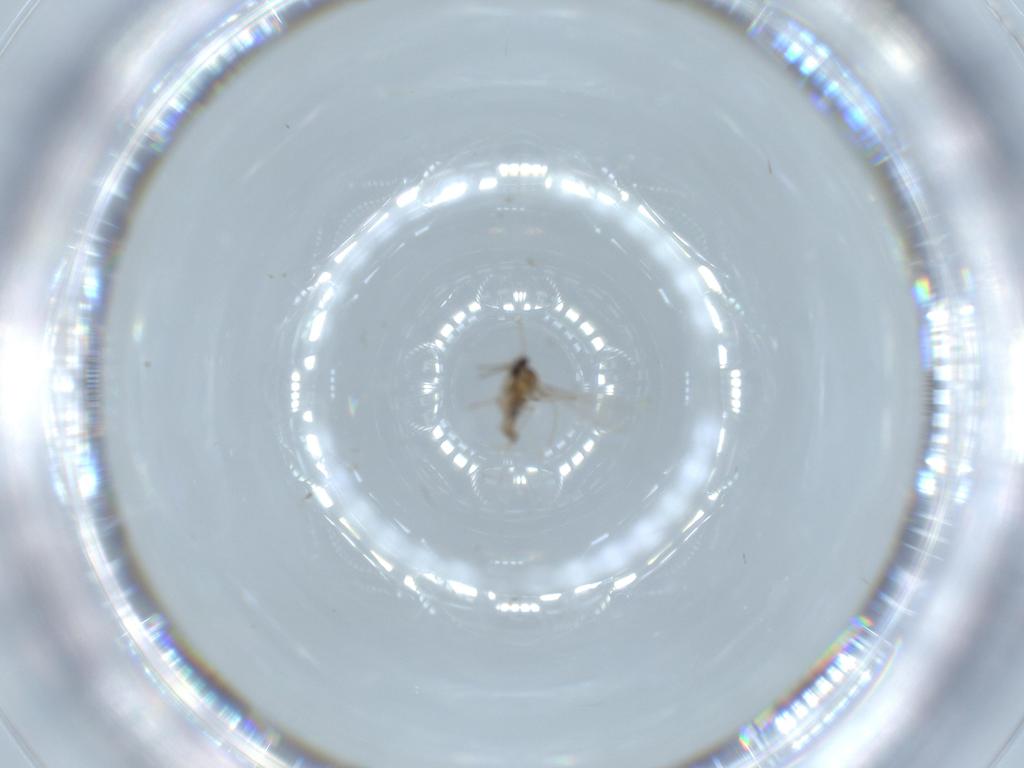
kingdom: Animalia
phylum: Arthropoda
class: Insecta
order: Diptera
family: Cecidomyiidae
